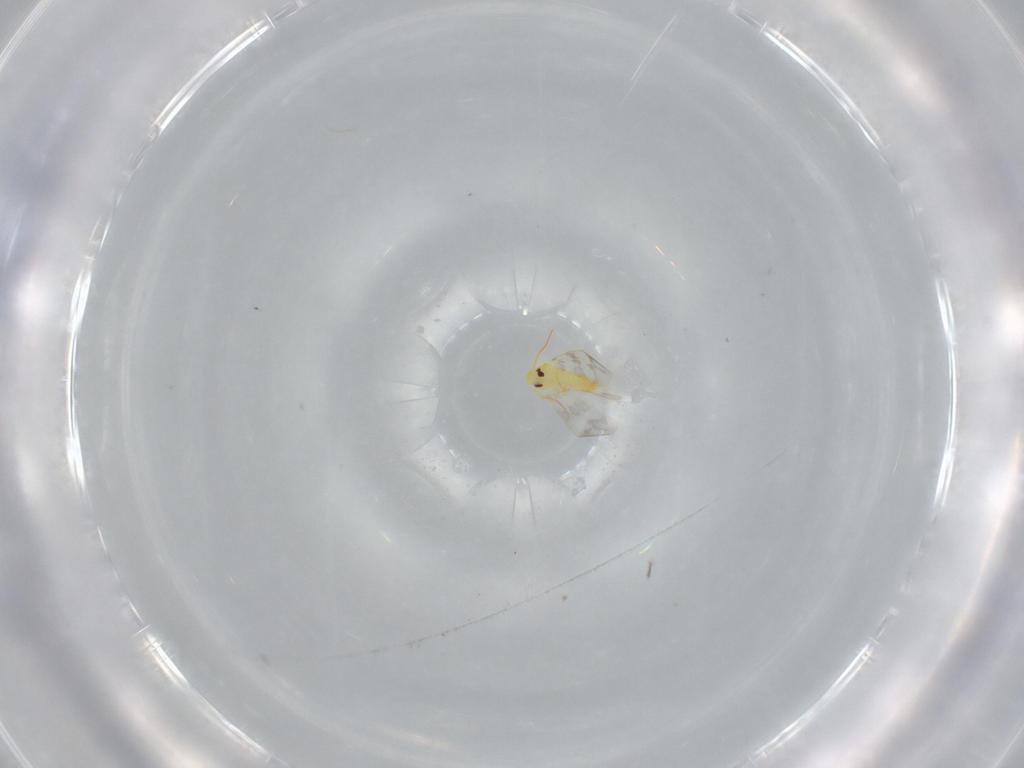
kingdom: Animalia
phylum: Arthropoda
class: Insecta
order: Hemiptera
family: Aleyrodidae
